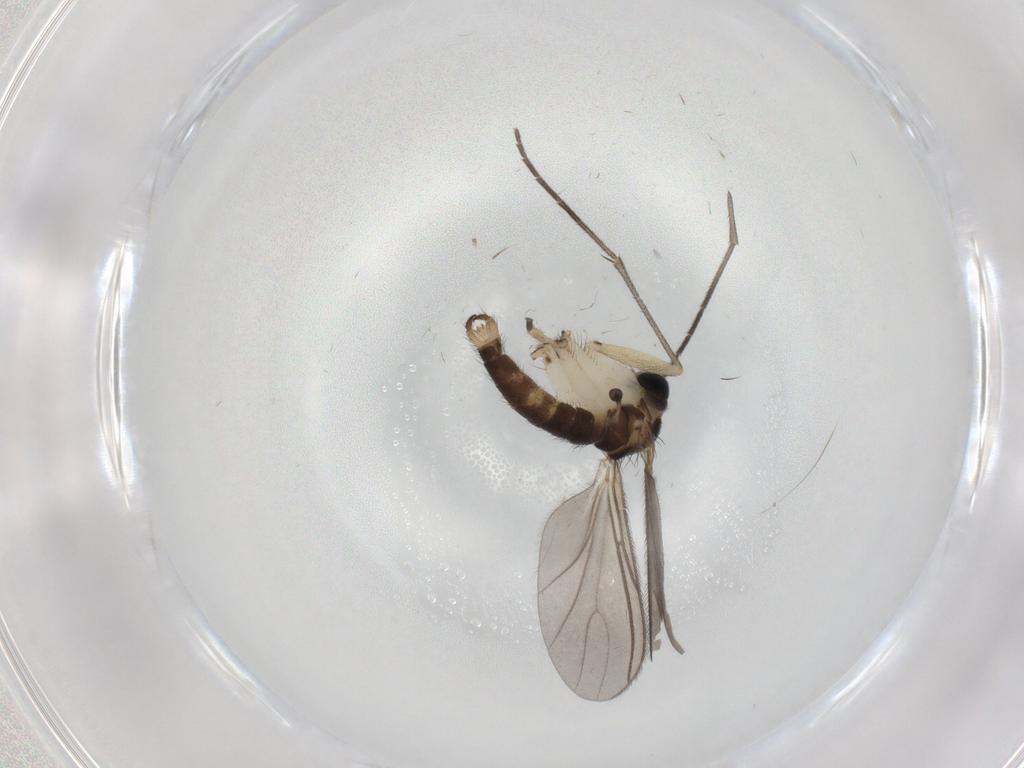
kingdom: Animalia
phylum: Arthropoda
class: Insecta
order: Diptera
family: Sciaridae
